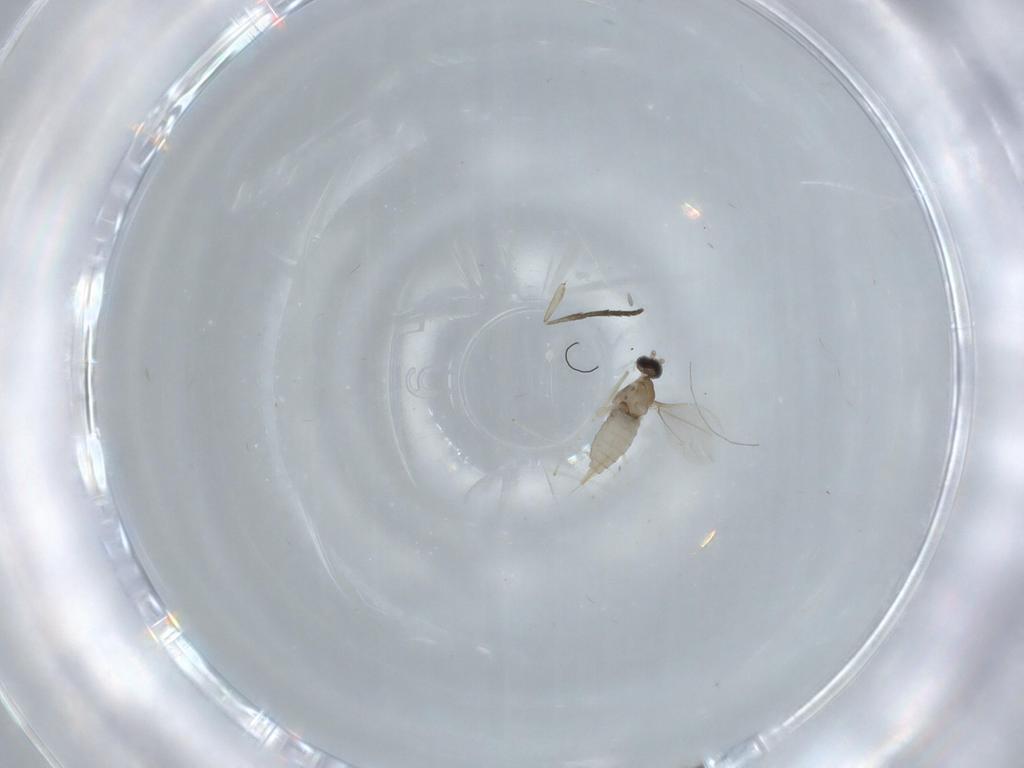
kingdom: Animalia
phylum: Arthropoda
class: Insecta
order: Diptera
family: Cecidomyiidae
